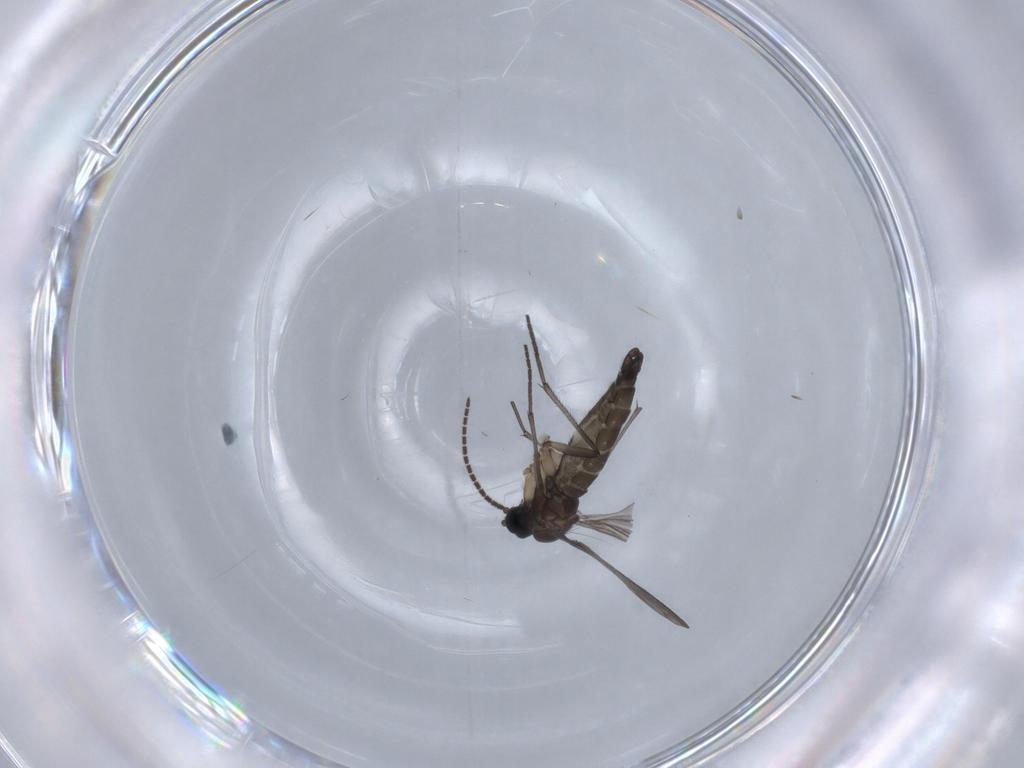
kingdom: Animalia
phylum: Arthropoda
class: Insecta
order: Diptera
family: Sciaridae
